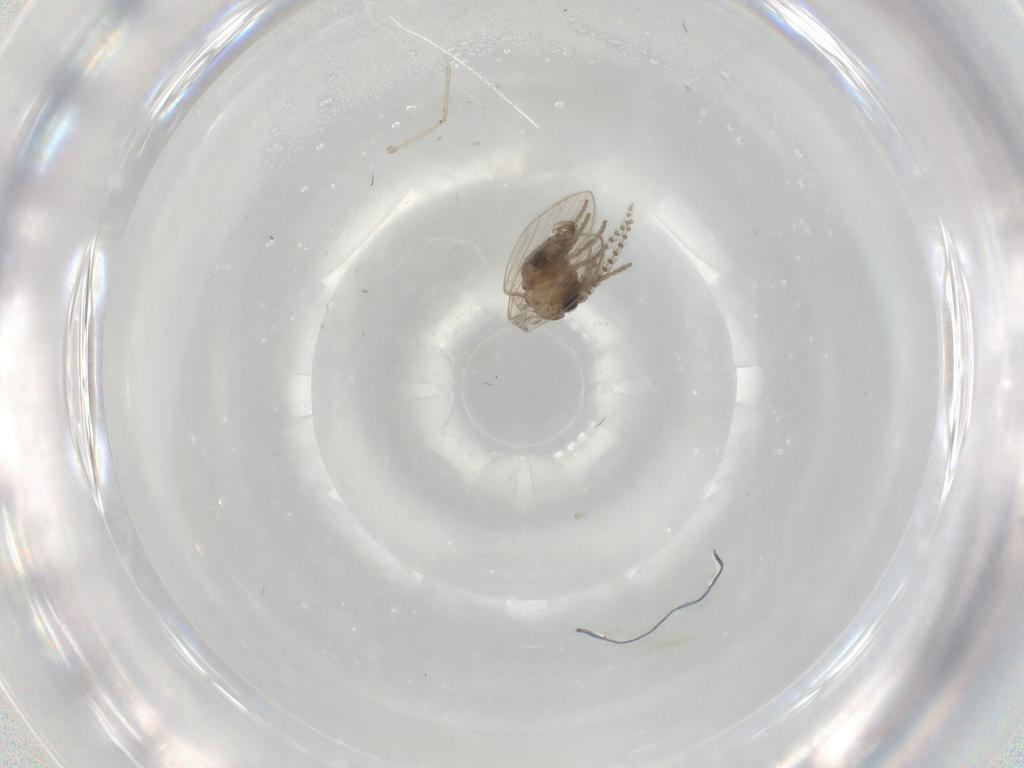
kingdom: Animalia
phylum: Arthropoda
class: Insecta
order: Diptera
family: Psychodidae
